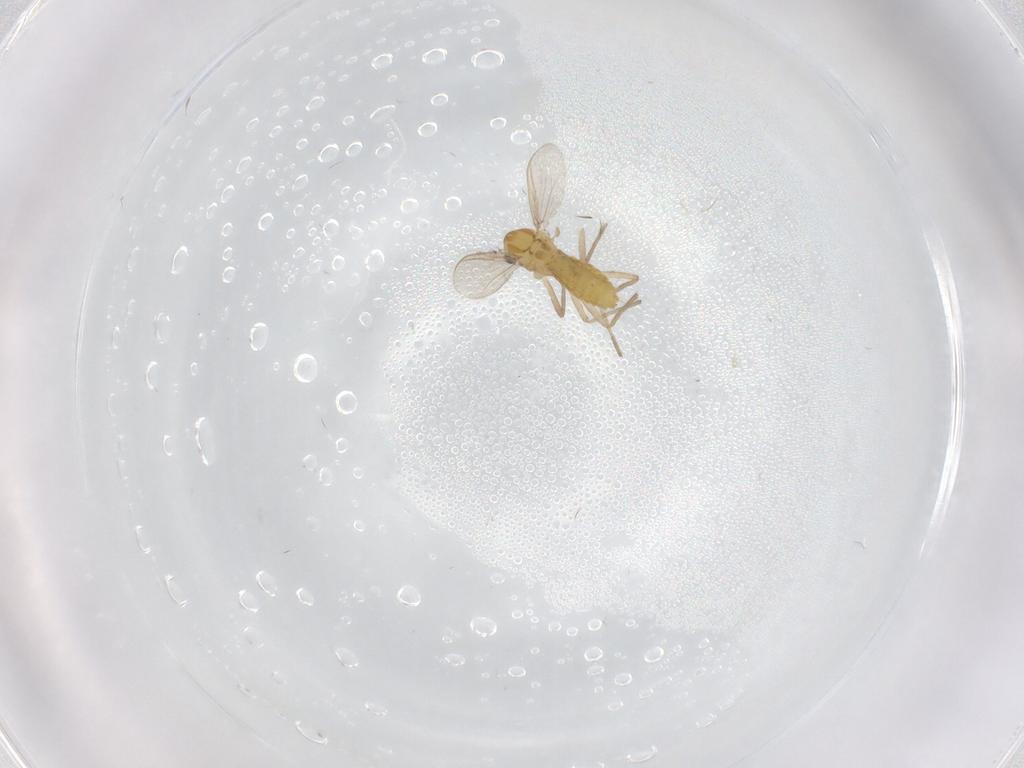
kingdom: Animalia
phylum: Arthropoda
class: Insecta
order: Diptera
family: Chironomidae
